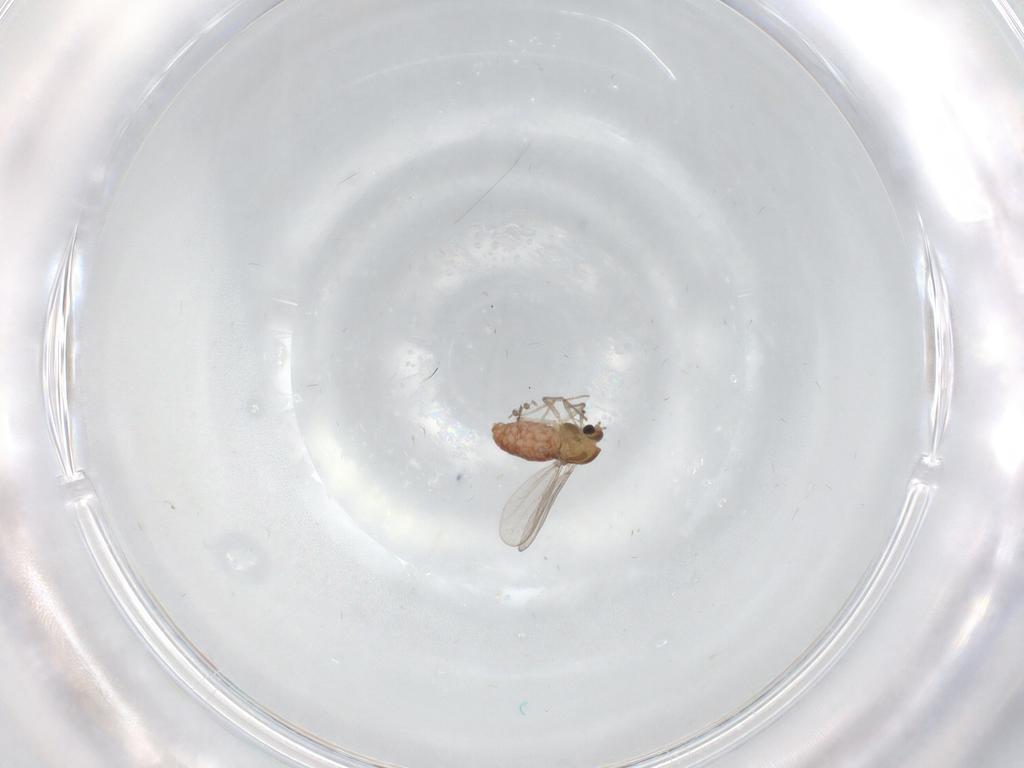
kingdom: Animalia
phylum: Arthropoda
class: Insecta
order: Diptera
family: Chironomidae
